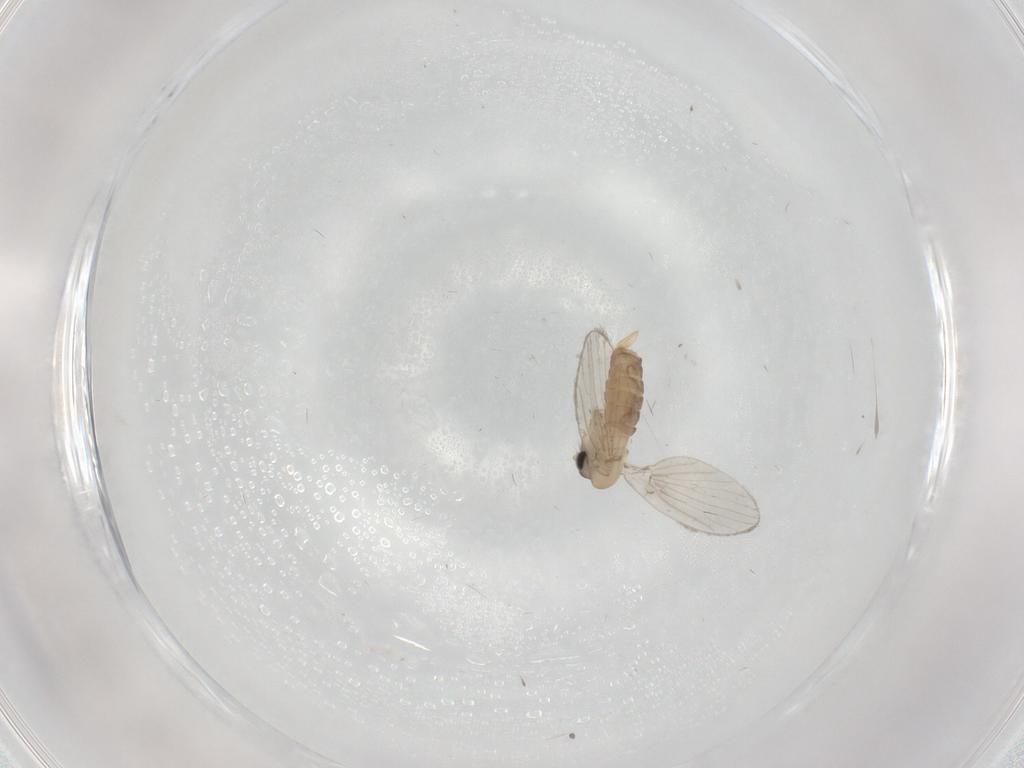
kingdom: Animalia
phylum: Arthropoda
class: Insecta
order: Diptera
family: Psychodidae
